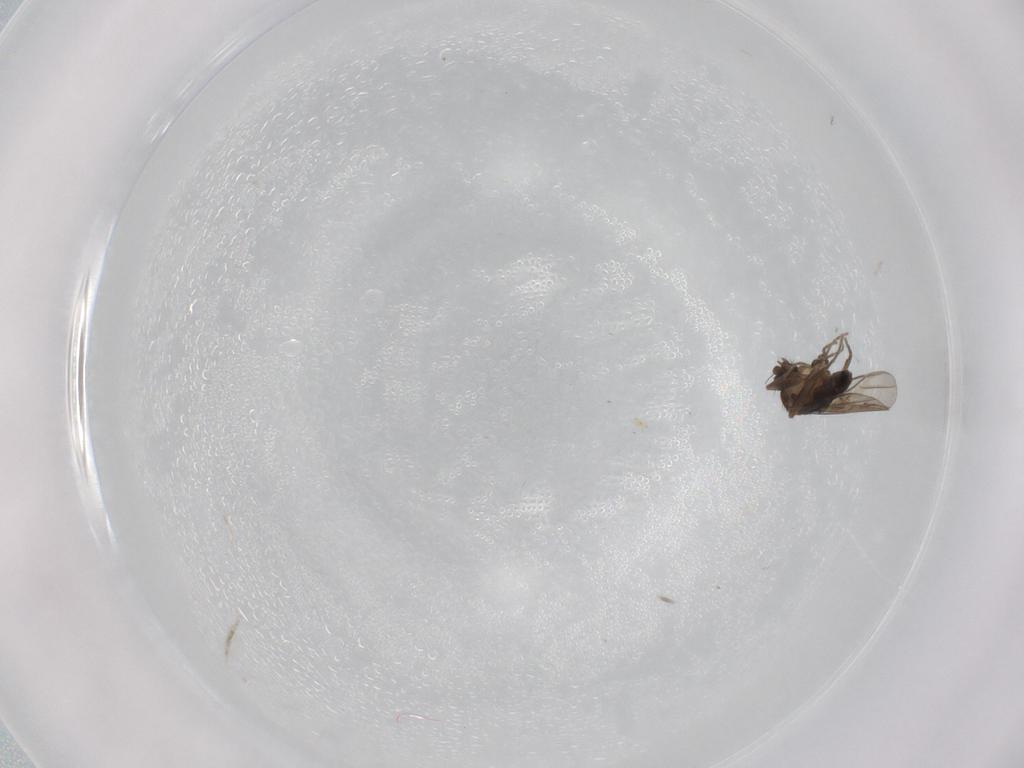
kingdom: Animalia
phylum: Arthropoda
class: Insecta
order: Diptera
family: Phoridae
